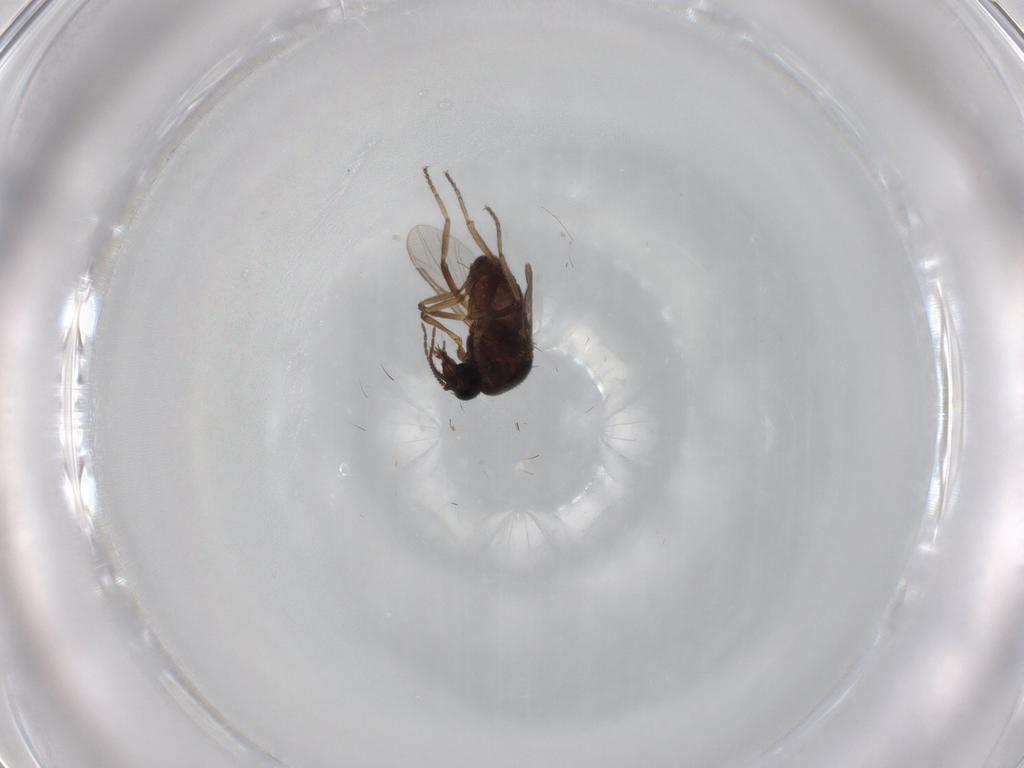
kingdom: Animalia
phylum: Arthropoda
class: Insecta
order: Diptera
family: Ceratopogonidae
